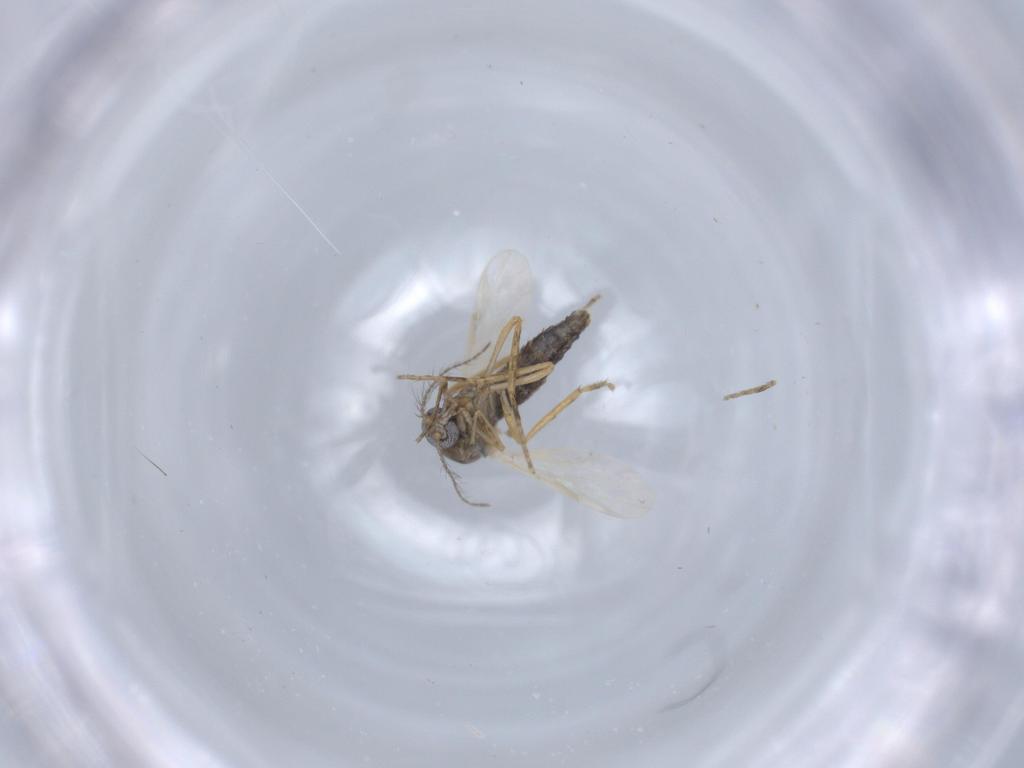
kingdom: Animalia
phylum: Arthropoda
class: Insecta
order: Diptera
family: Ceratopogonidae
